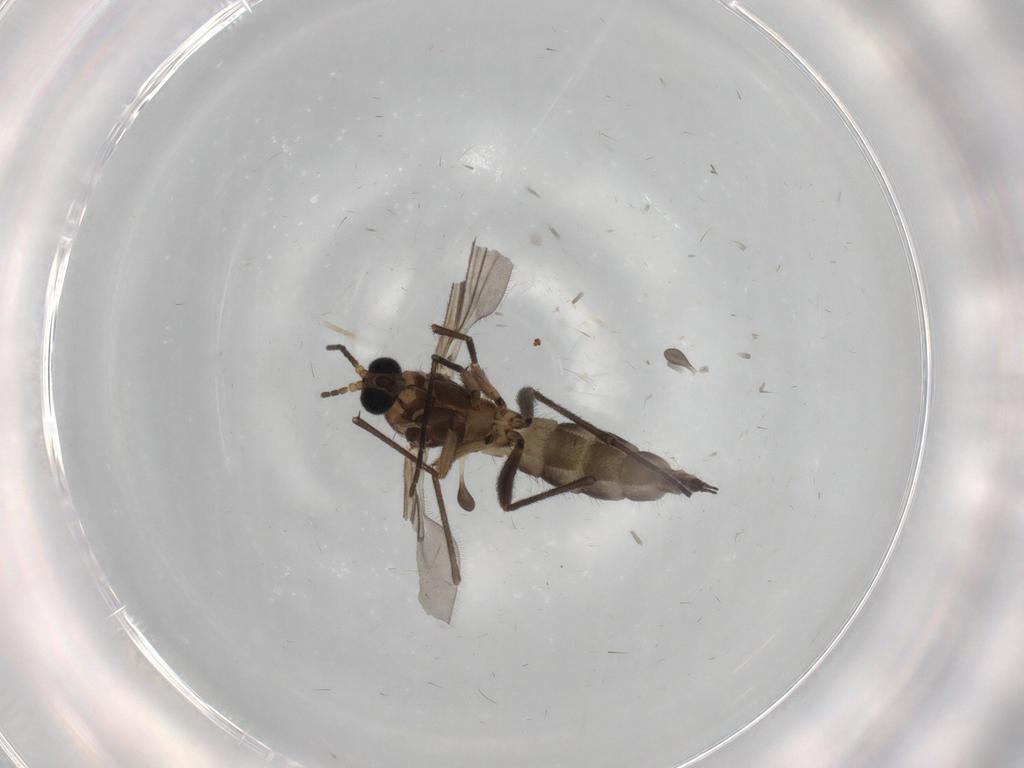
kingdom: Animalia
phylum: Arthropoda
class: Insecta
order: Diptera
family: Sciaridae
